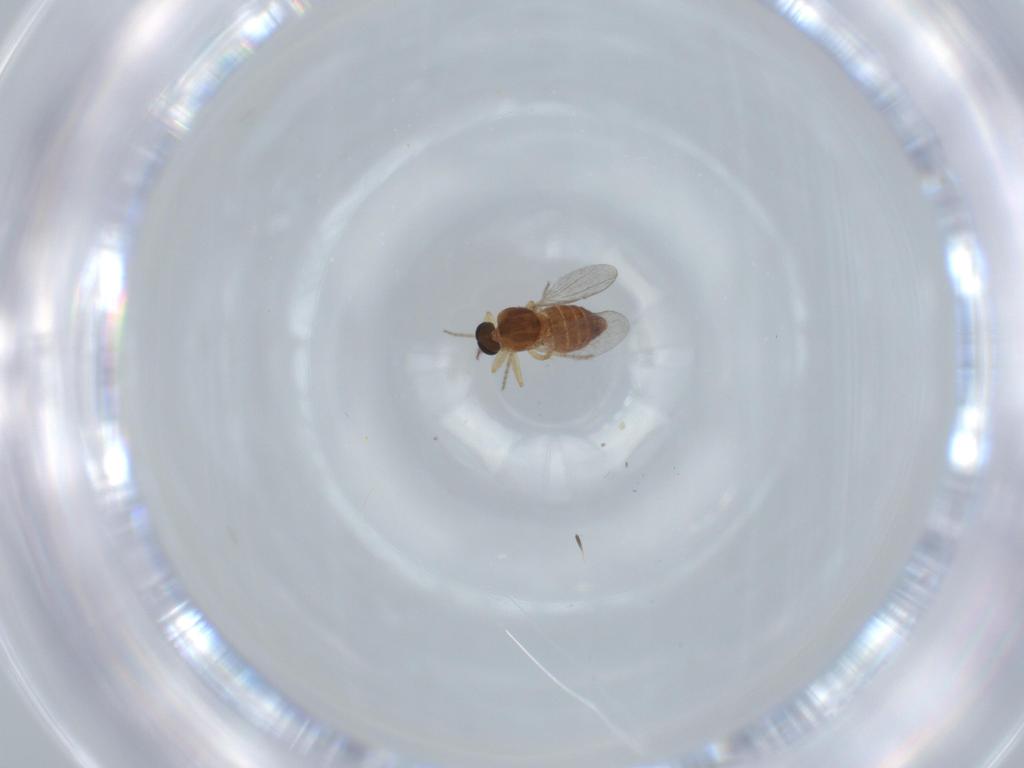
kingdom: Animalia
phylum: Arthropoda
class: Insecta
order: Diptera
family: Ceratopogonidae
